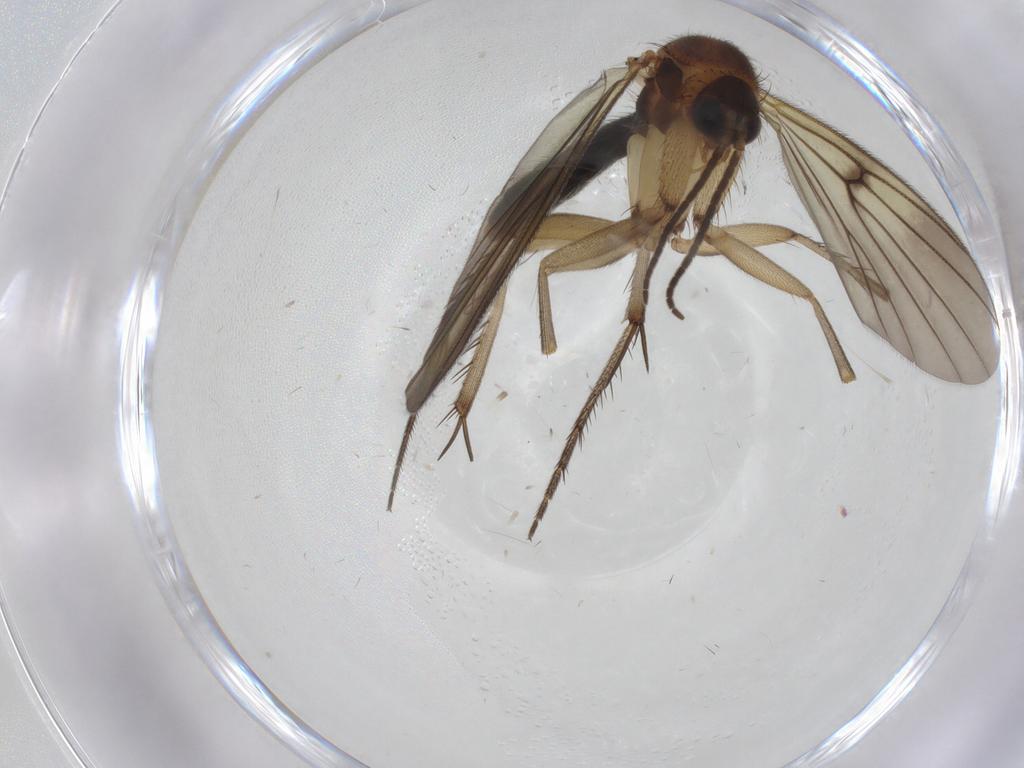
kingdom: Animalia
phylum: Arthropoda
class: Insecta
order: Diptera
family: Mycetophilidae
